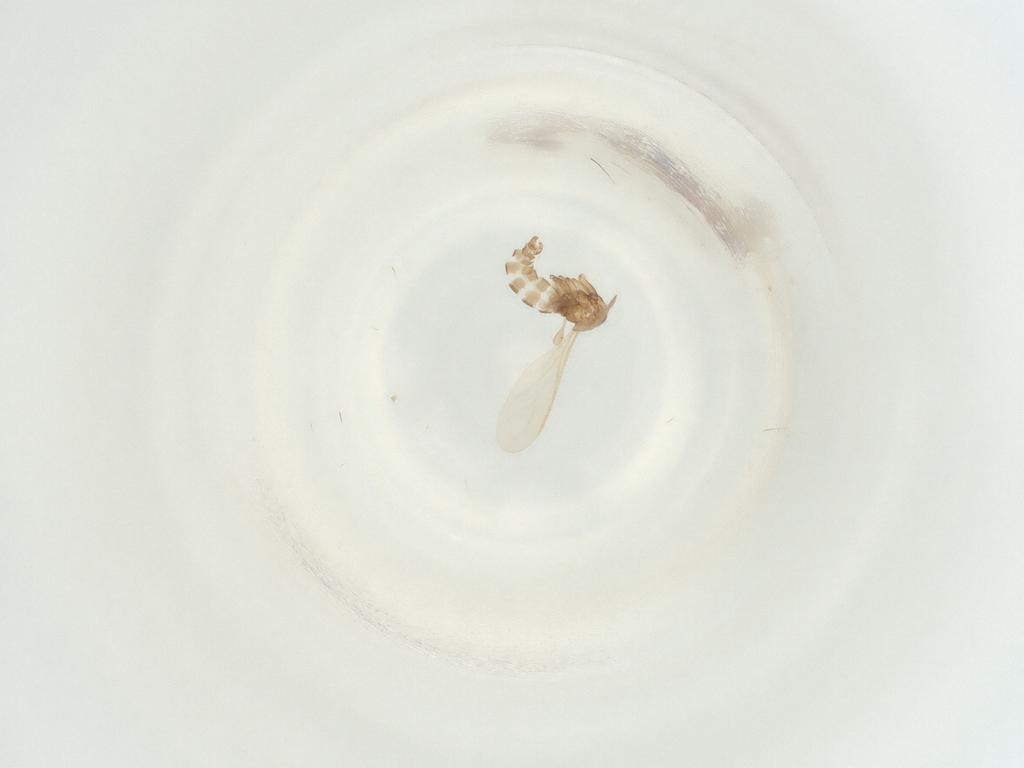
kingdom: Animalia
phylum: Arthropoda
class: Insecta
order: Diptera
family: Sciaridae
